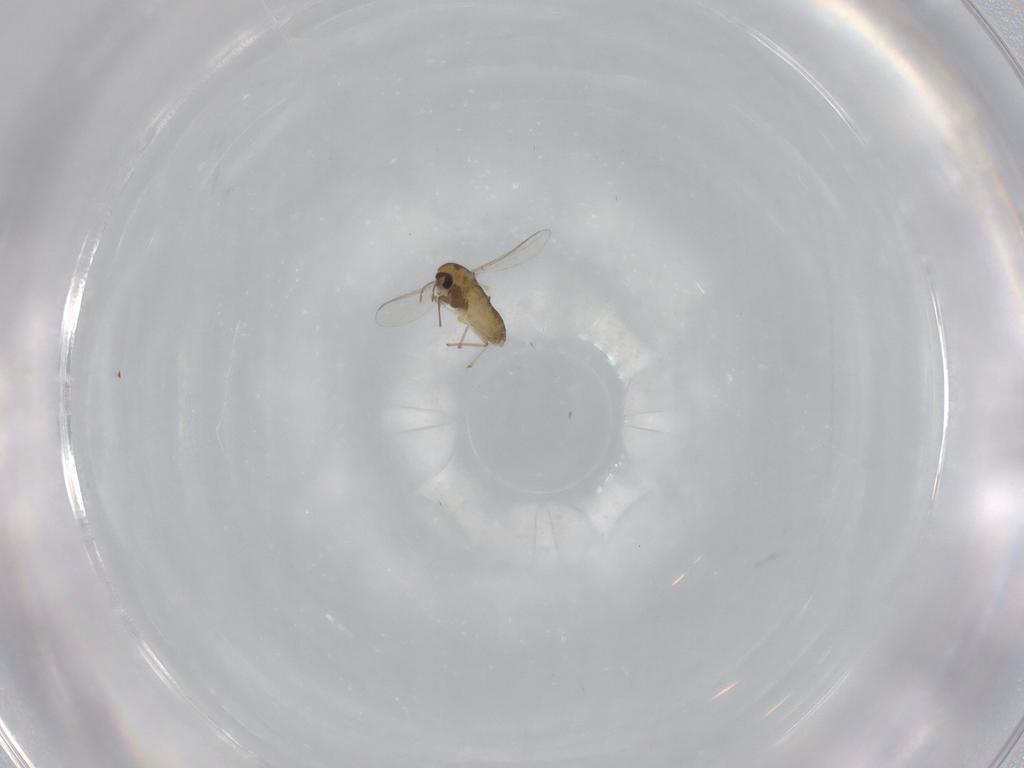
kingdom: Animalia
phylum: Arthropoda
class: Insecta
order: Diptera
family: Chironomidae
